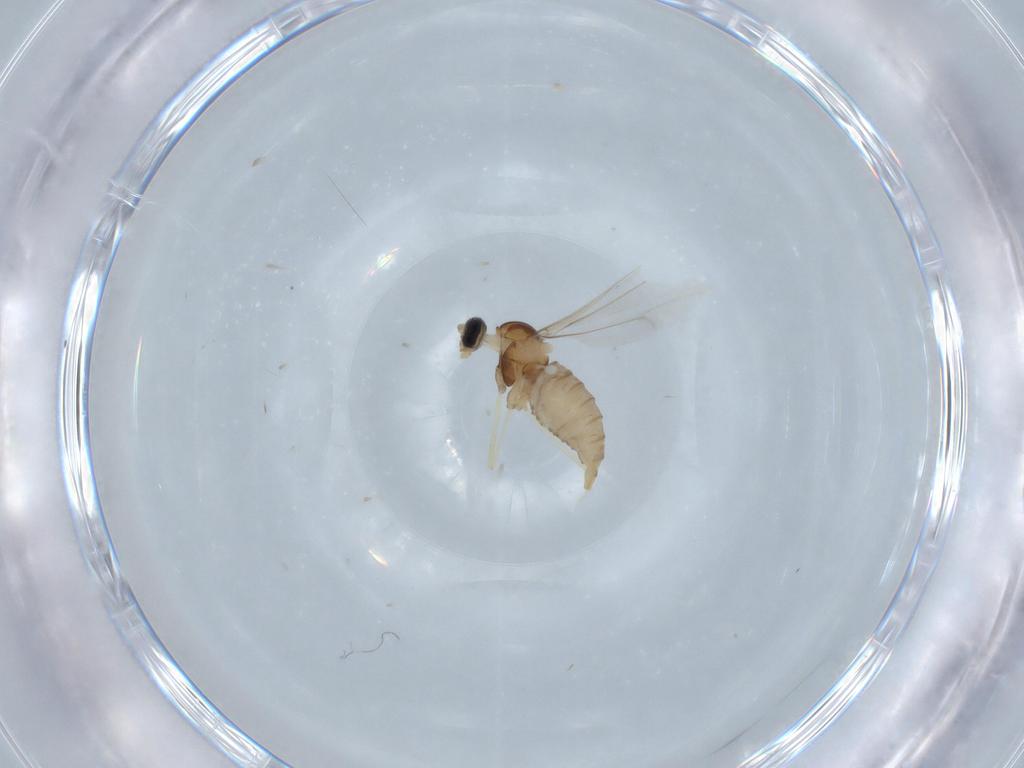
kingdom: Animalia
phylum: Arthropoda
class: Insecta
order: Diptera
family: Cecidomyiidae
